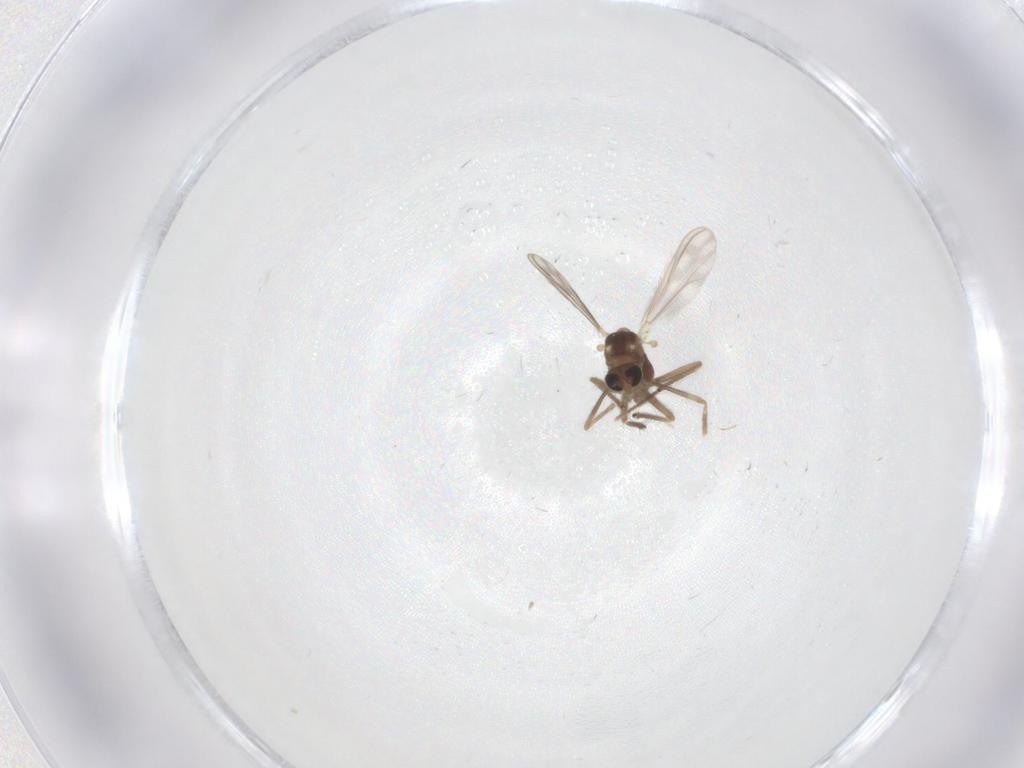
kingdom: Animalia
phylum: Arthropoda
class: Insecta
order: Diptera
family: Chironomidae
